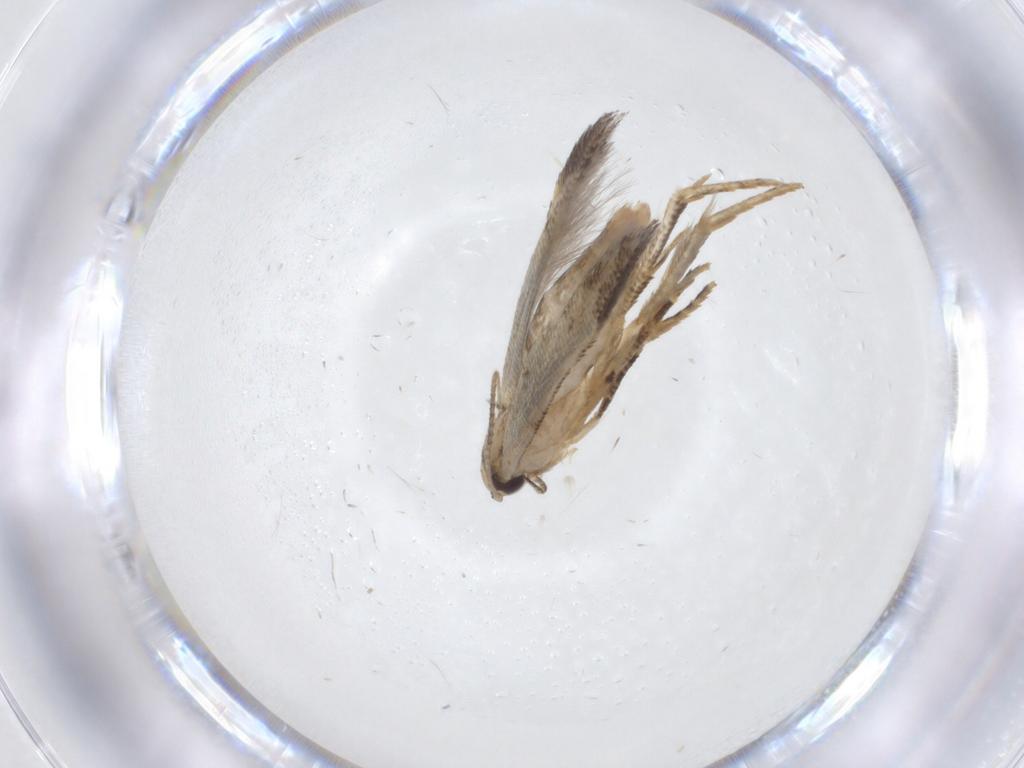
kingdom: Animalia
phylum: Arthropoda
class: Insecta
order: Lepidoptera
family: Gelechiidae
